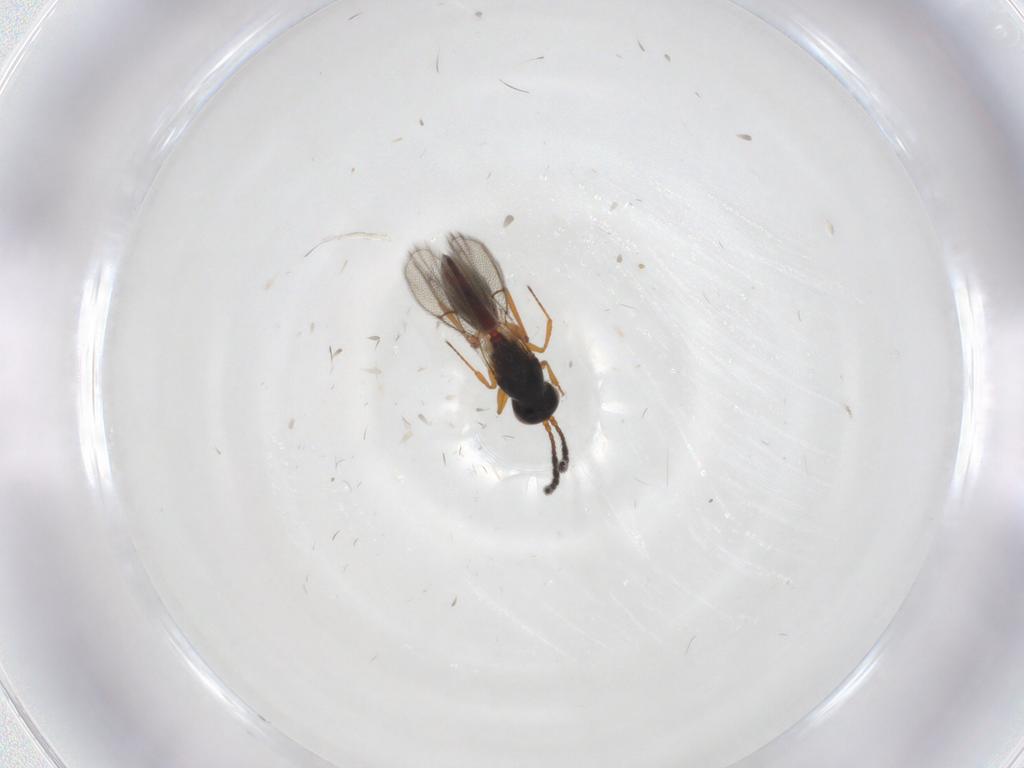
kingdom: Animalia
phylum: Arthropoda
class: Insecta
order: Hymenoptera
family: Figitidae
